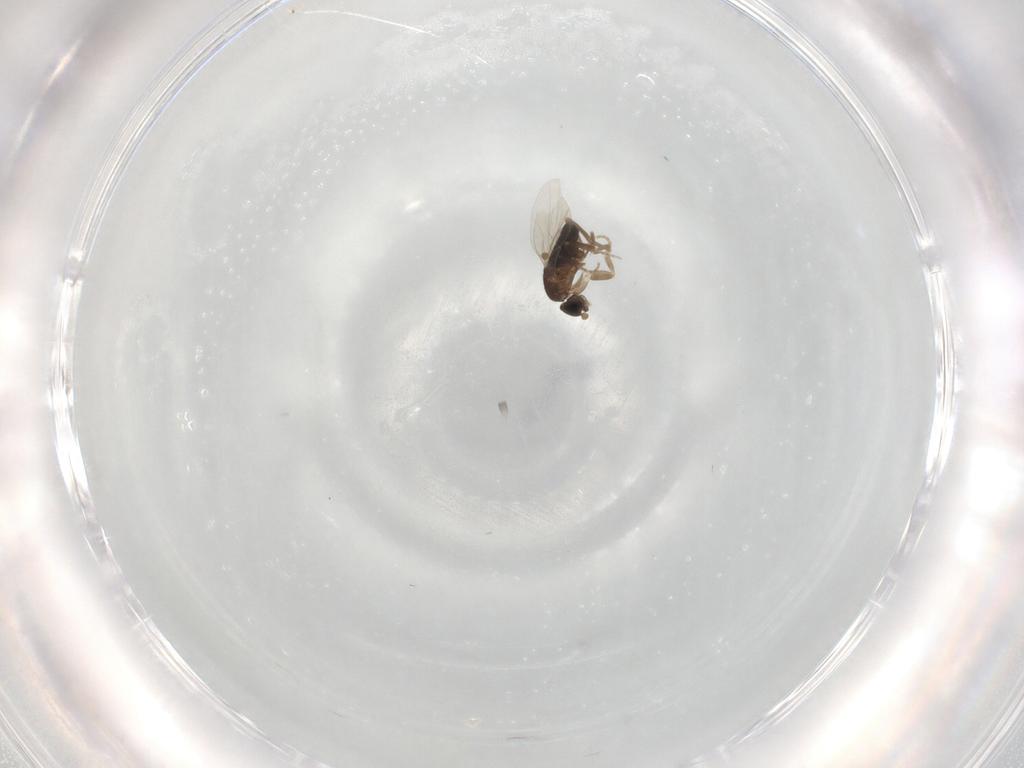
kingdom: Animalia
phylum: Arthropoda
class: Insecta
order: Diptera
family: Phoridae
